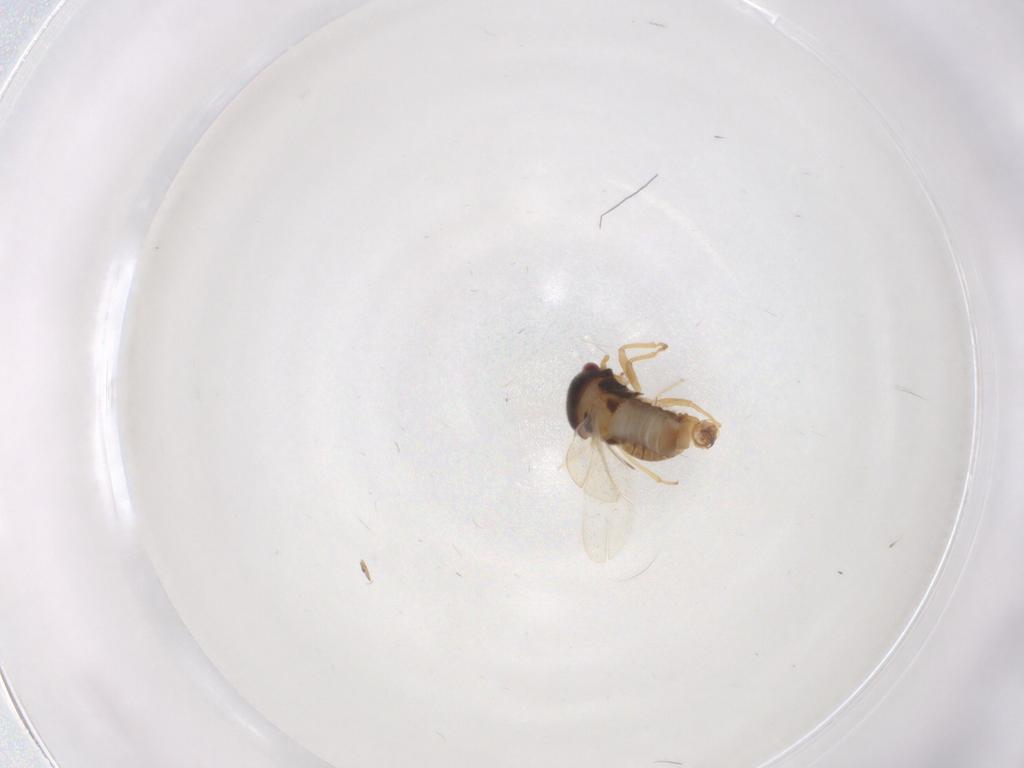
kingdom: Animalia
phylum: Arthropoda
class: Insecta
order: Hemiptera
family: Schizopteridae
